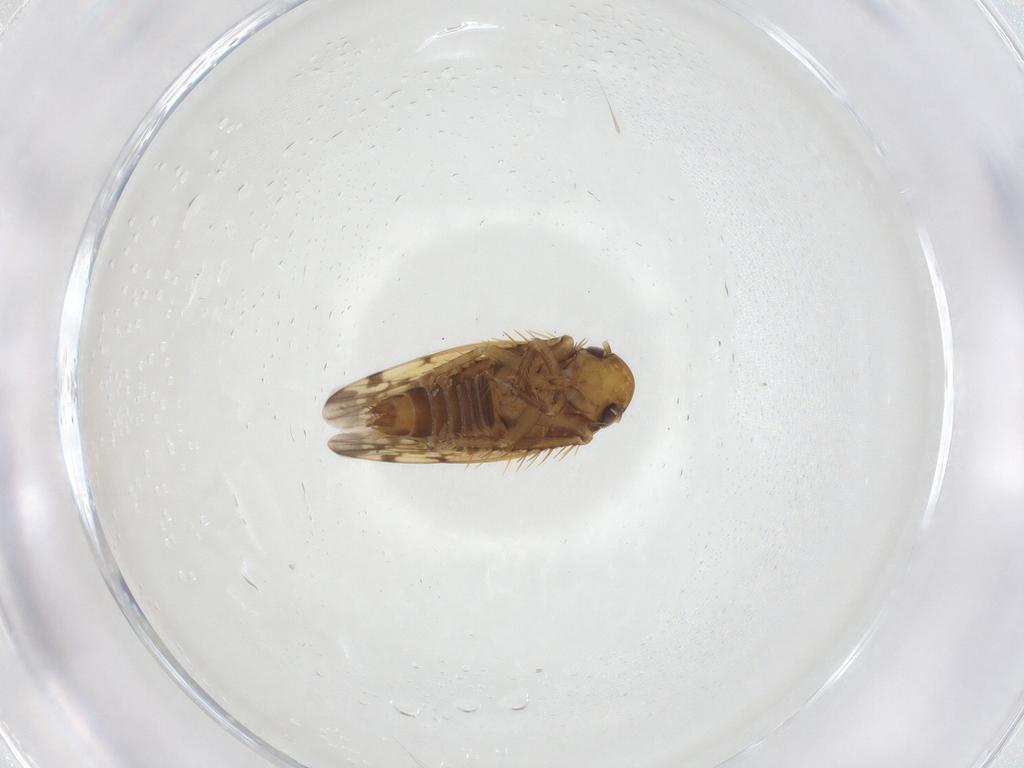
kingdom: Animalia
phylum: Arthropoda
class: Insecta
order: Hemiptera
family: Cicadellidae
